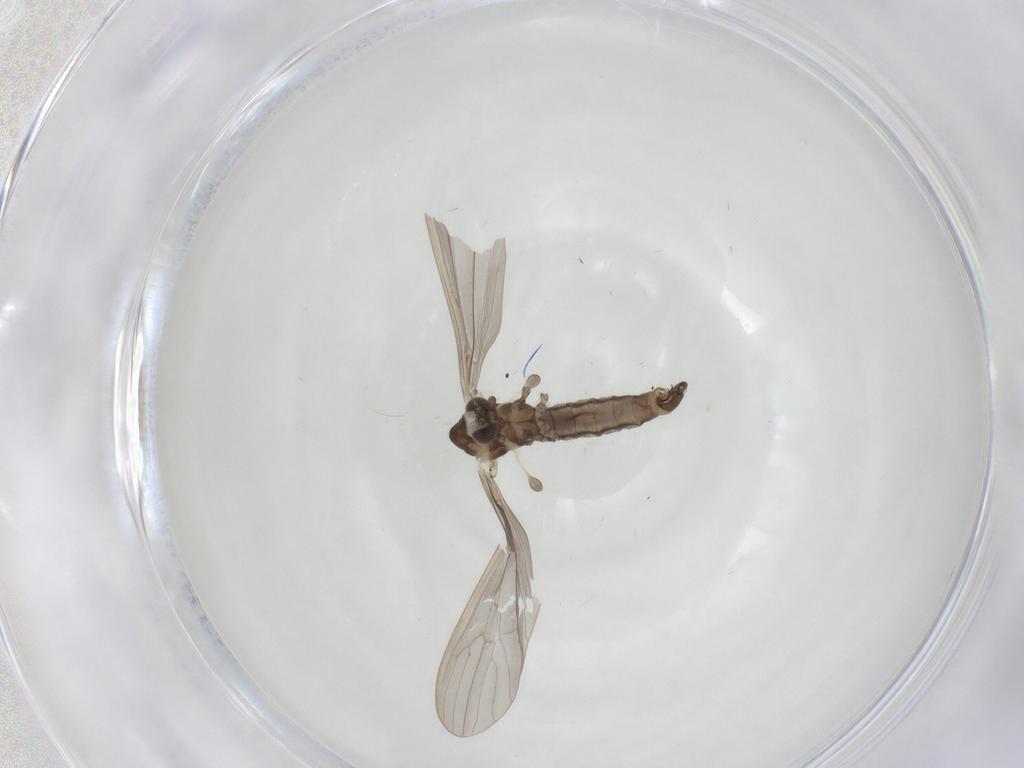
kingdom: Animalia
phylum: Arthropoda
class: Insecta
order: Diptera
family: Limoniidae
